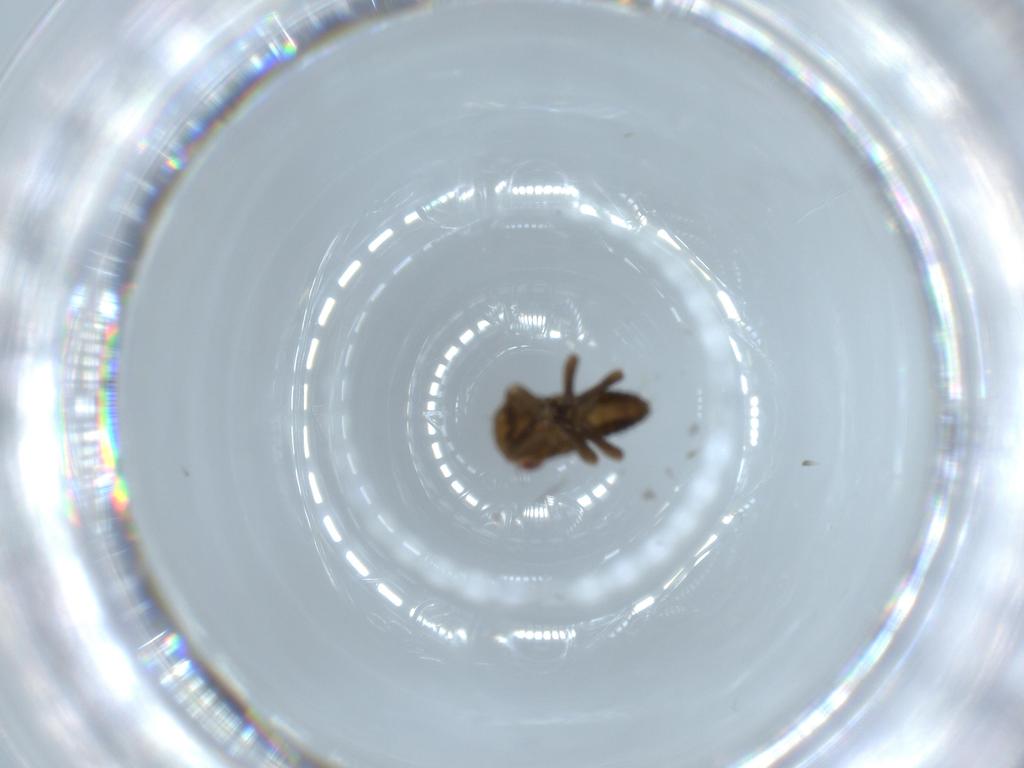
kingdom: Animalia
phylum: Arthropoda
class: Insecta
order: Hemiptera
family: Cicadellidae
